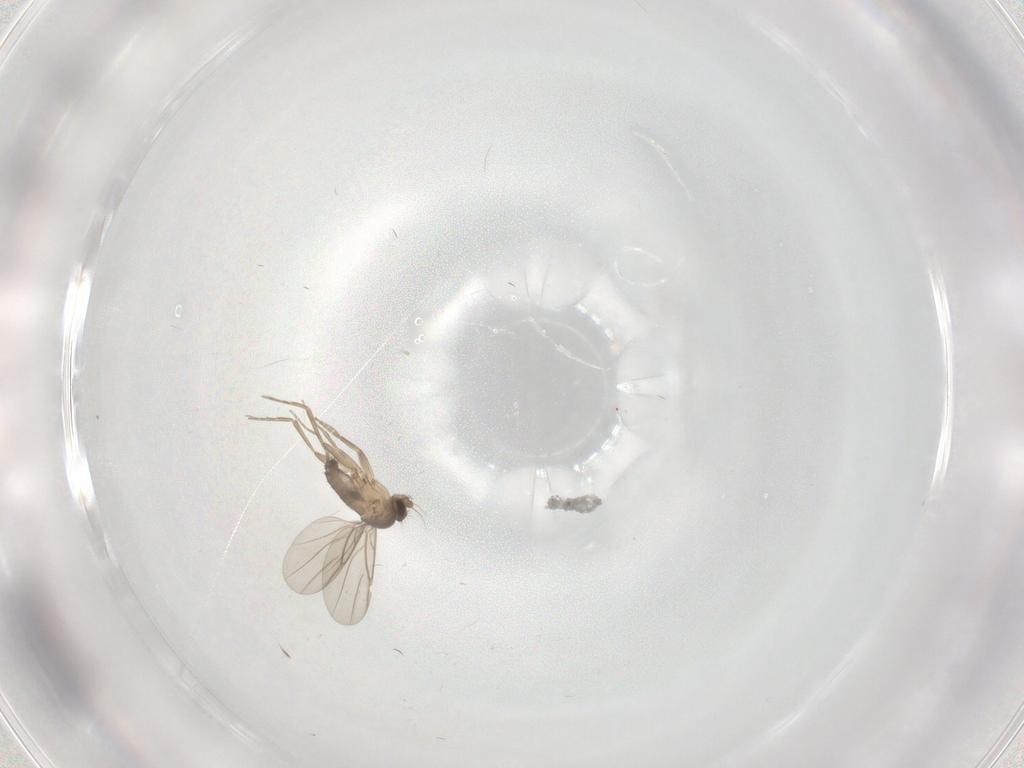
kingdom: Animalia
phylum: Arthropoda
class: Insecta
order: Diptera
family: Phoridae
